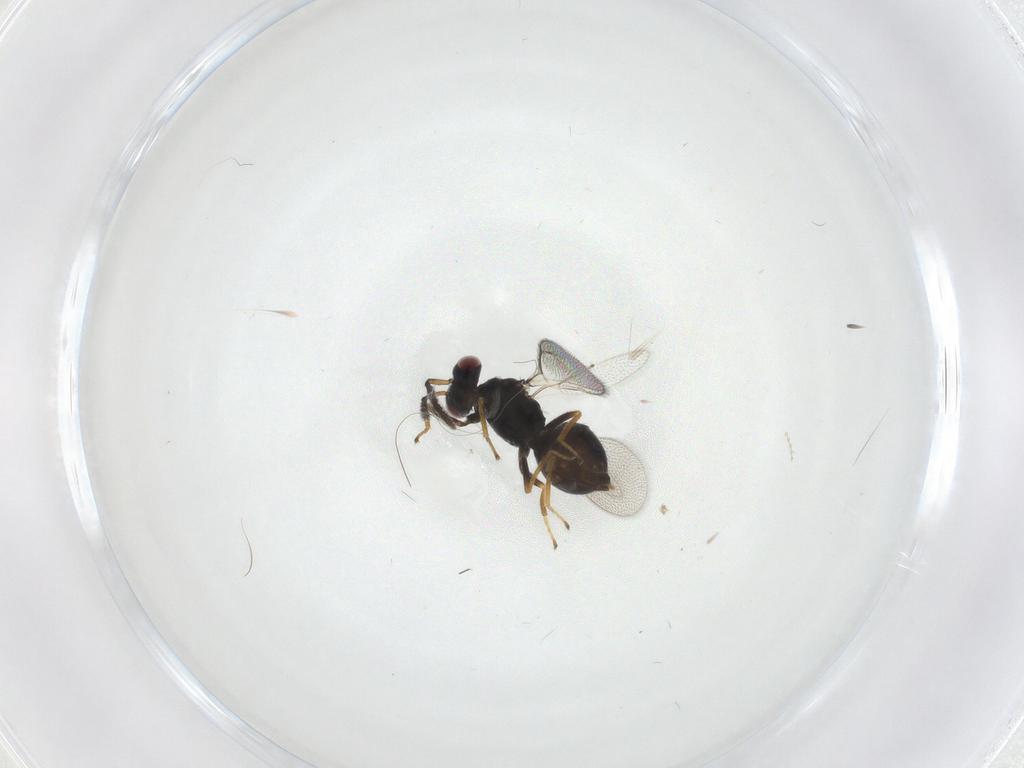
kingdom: Animalia
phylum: Arthropoda
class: Insecta
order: Hymenoptera
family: Eulophidae
